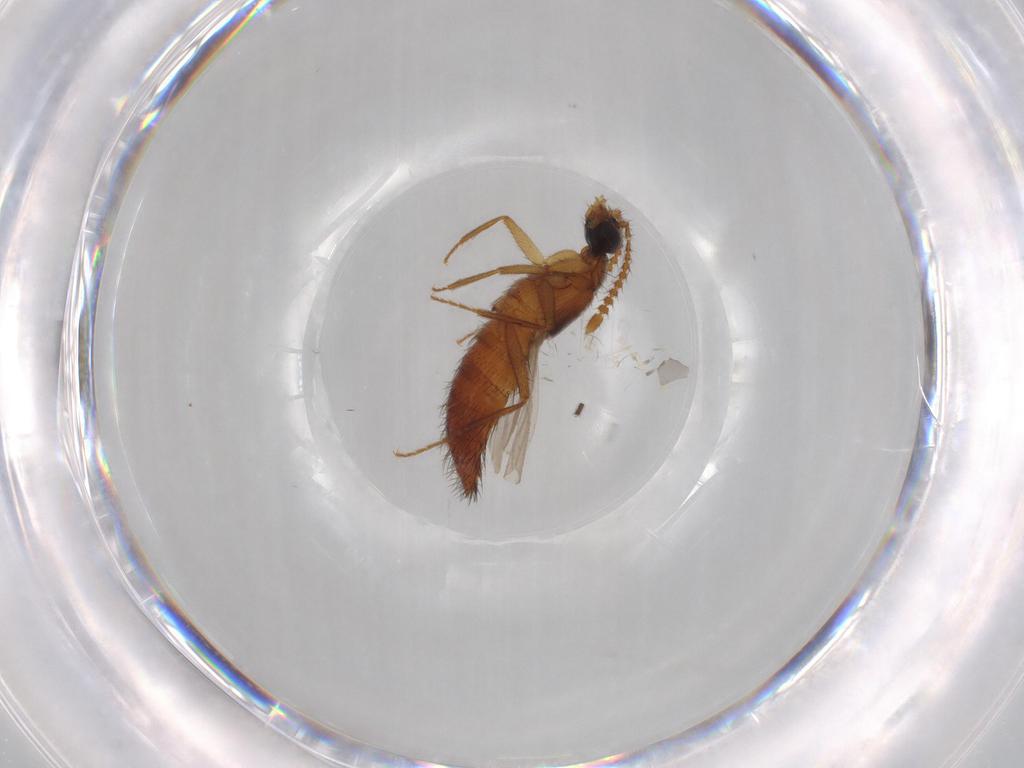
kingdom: Animalia
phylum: Arthropoda
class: Insecta
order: Coleoptera
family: Staphylinidae
